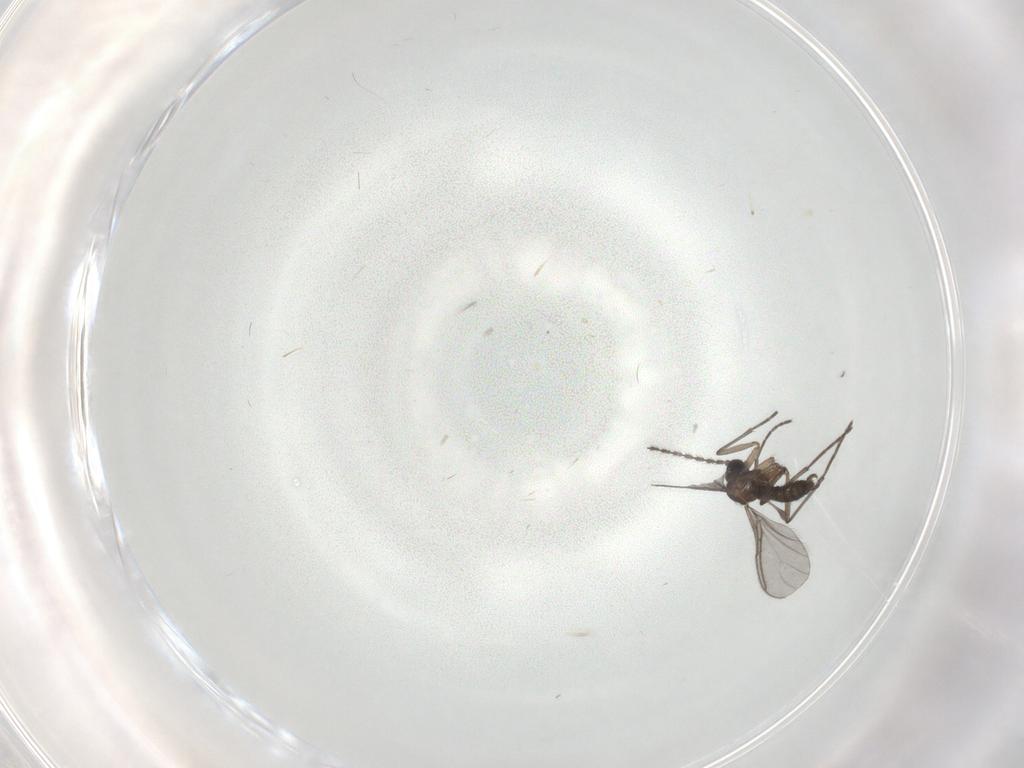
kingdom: Animalia
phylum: Arthropoda
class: Insecta
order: Diptera
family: Sciaridae
